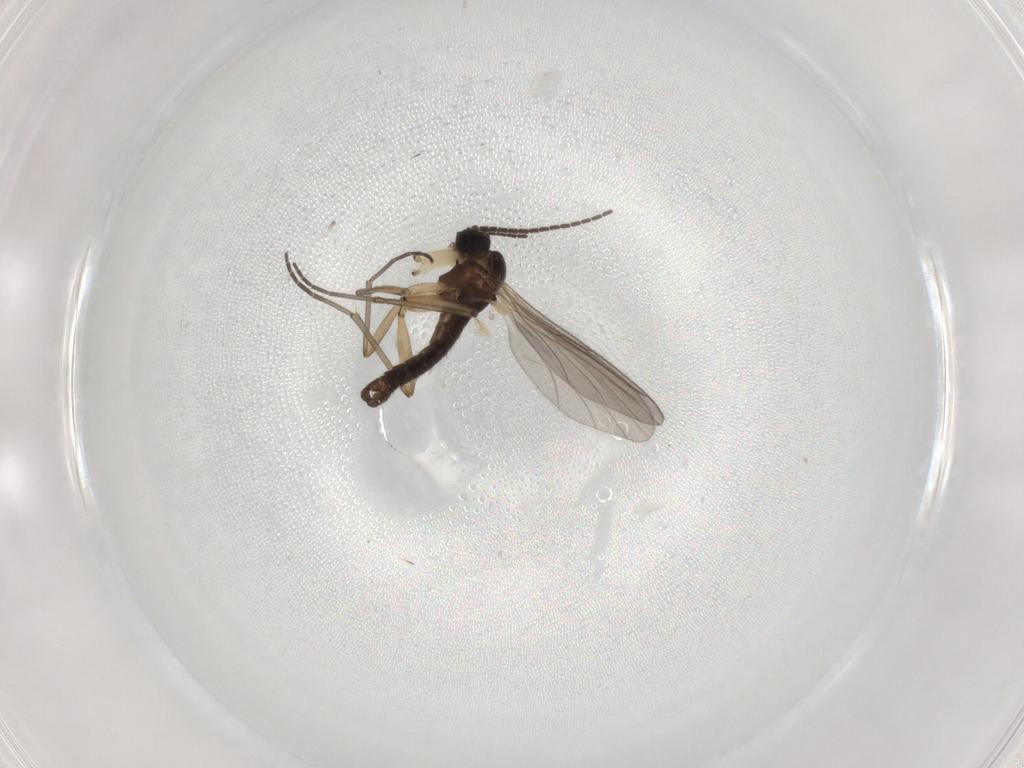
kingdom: Animalia
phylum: Arthropoda
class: Insecta
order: Diptera
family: Sciaridae
